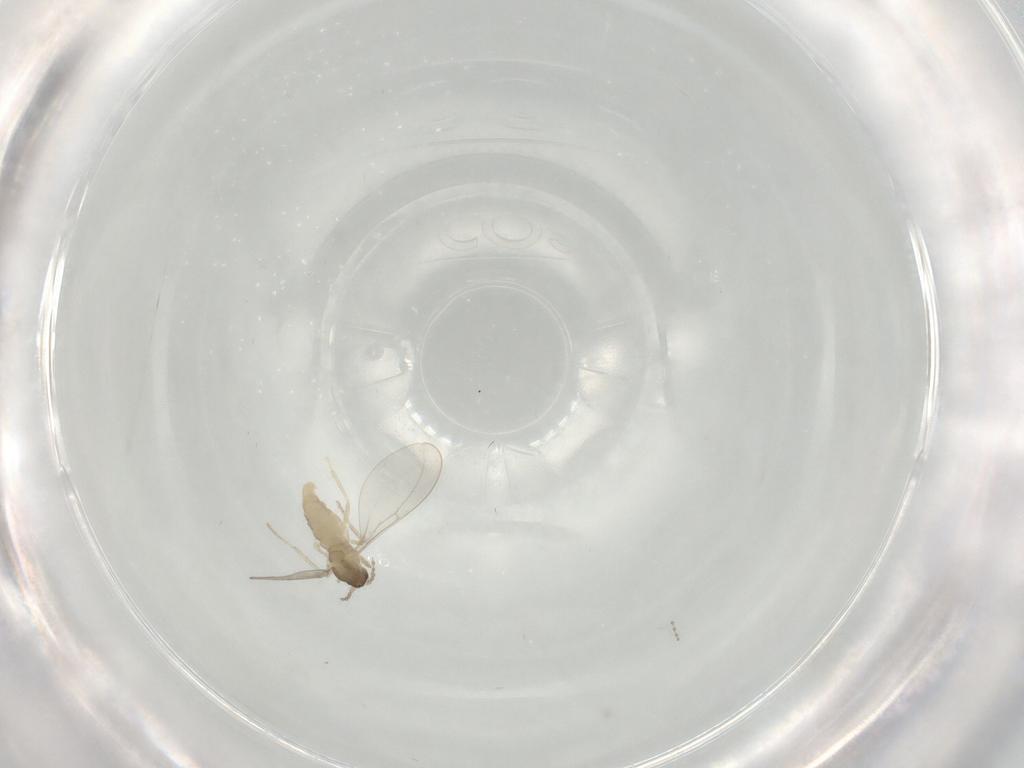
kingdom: Animalia
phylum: Arthropoda
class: Insecta
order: Diptera
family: Cecidomyiidae
